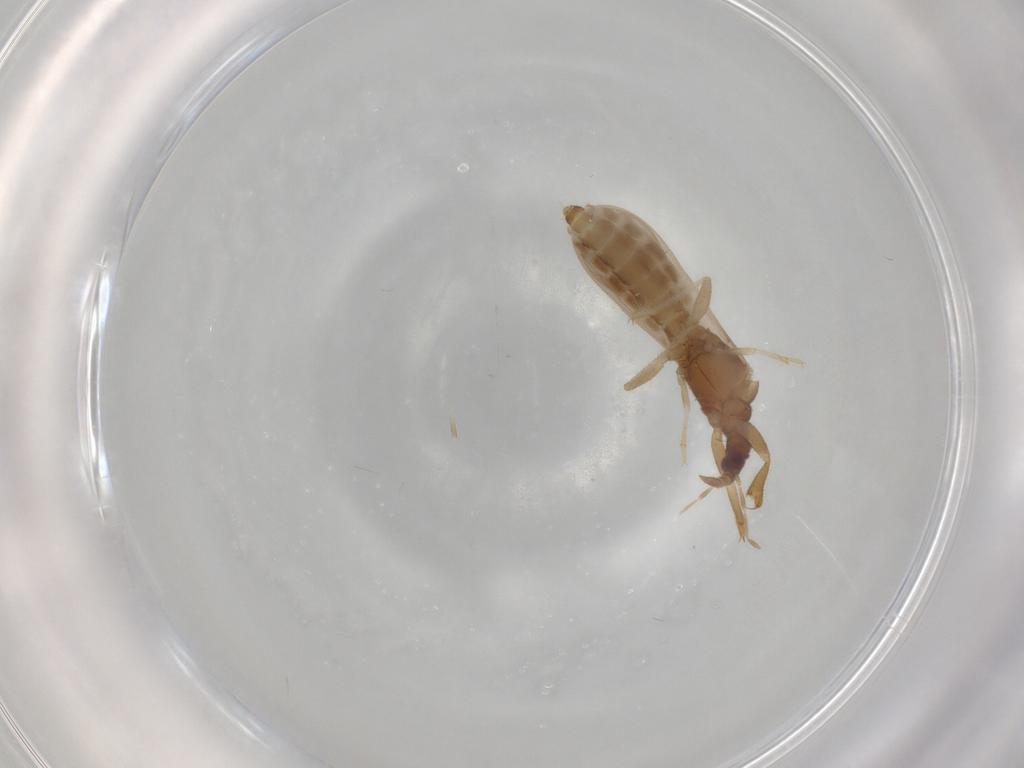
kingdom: Animalia
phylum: Arthropoda
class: Insecta
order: Hemiptera
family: Enicocephalidae
